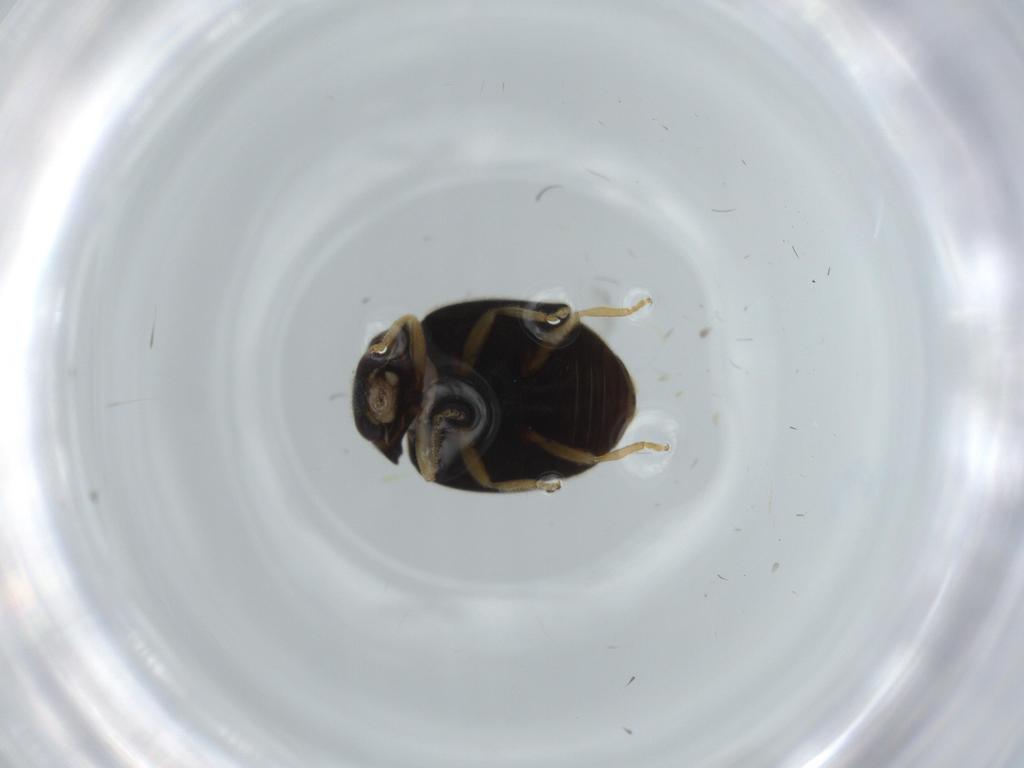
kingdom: Animalia
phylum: Arthropoda
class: Insecta
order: Coleoptera
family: Coccinellidae
